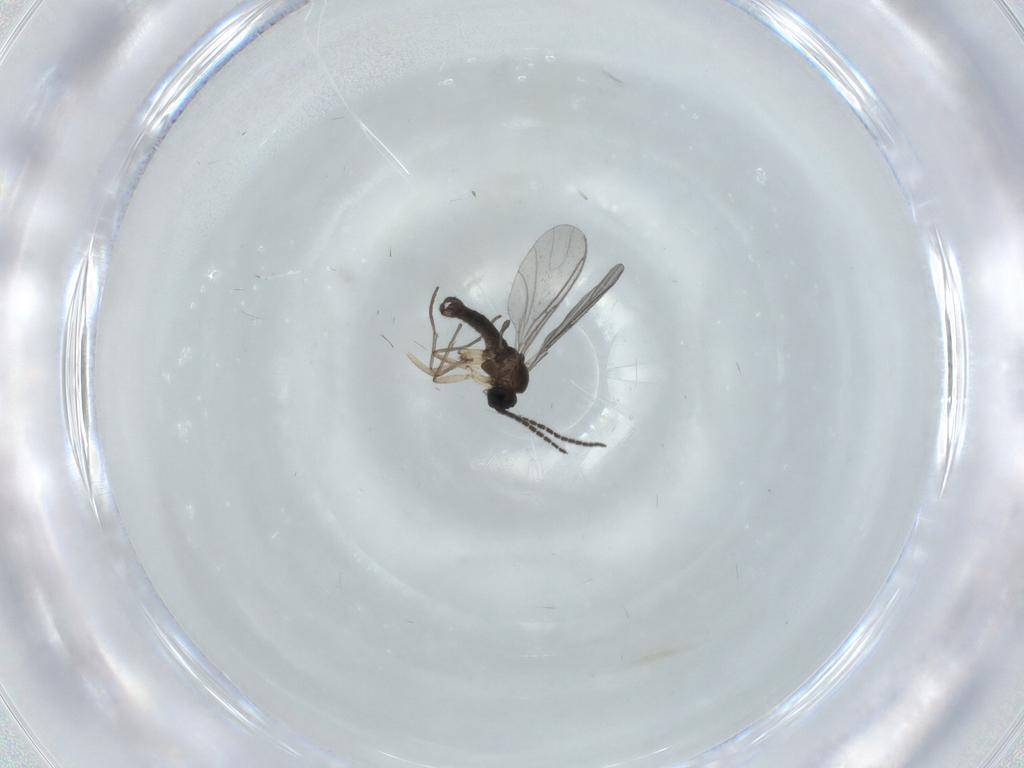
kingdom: Animalia
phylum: Arthropoda
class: Insecta
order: Diptera
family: Sciaridae
